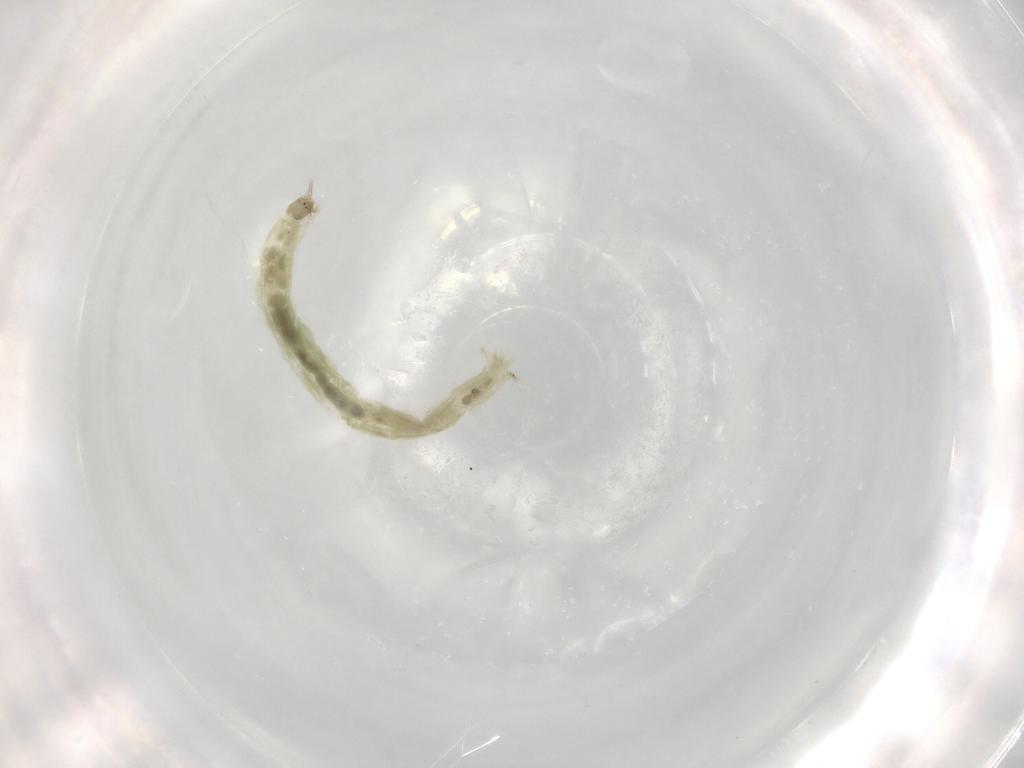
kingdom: Animalia
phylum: Arthropoda
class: Insecta
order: Diptera
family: Chironomidae
